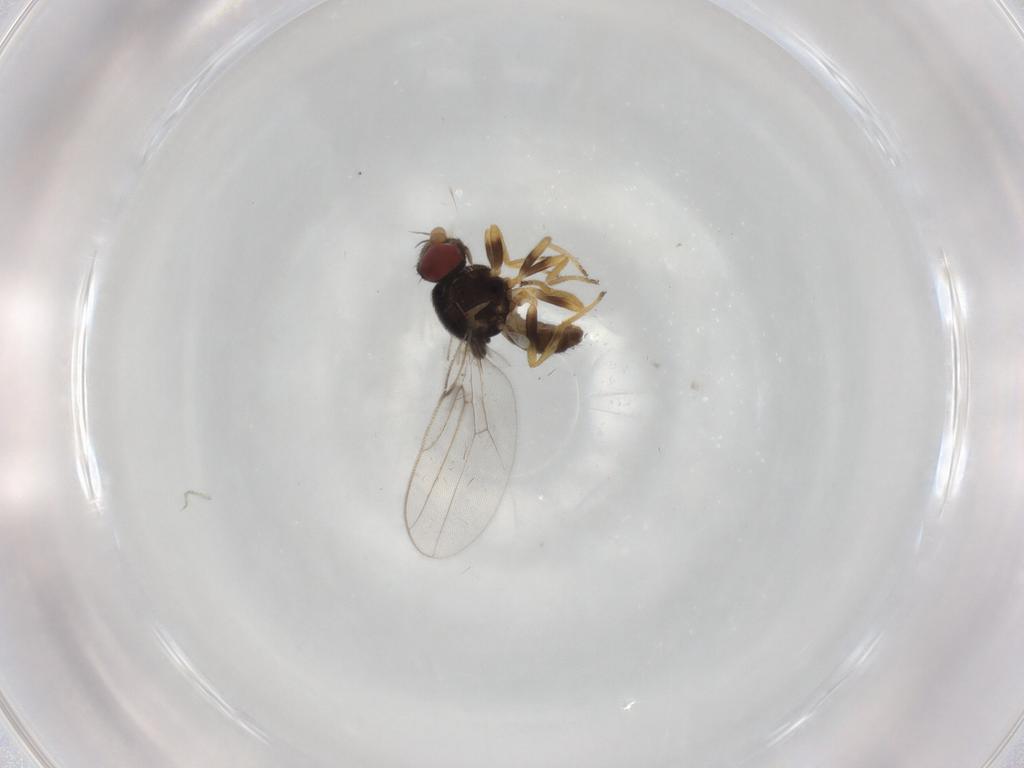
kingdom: Animalia
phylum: Arthropoda
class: Insecta
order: Diptera
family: Chloropidae
